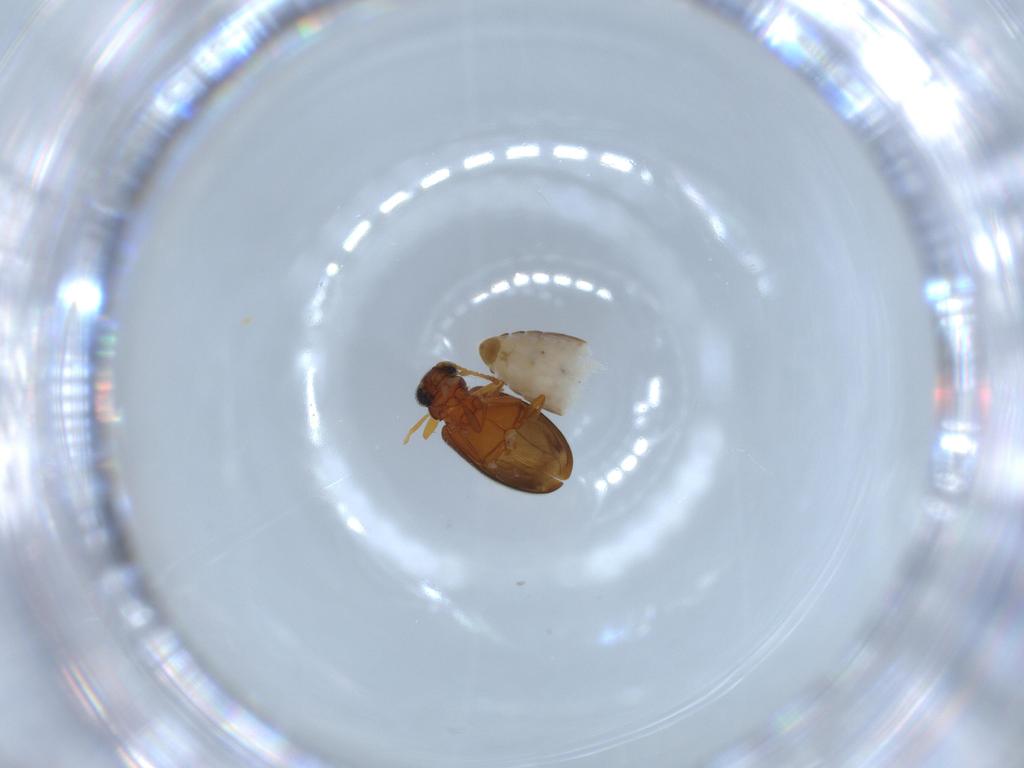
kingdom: Animalia
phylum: Arthropoda
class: Insecta
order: Coleoptera
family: Aderidae
